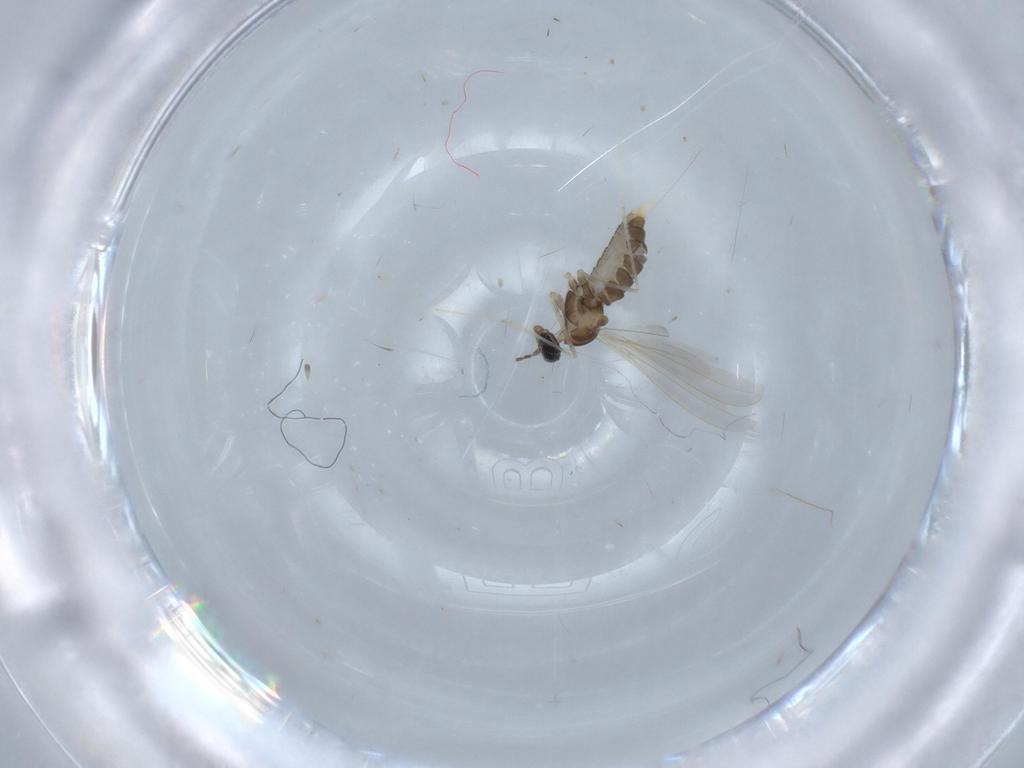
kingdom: Animalia
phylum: Arthropoda
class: Insecta
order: Diptera
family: Cecidomyiidae
